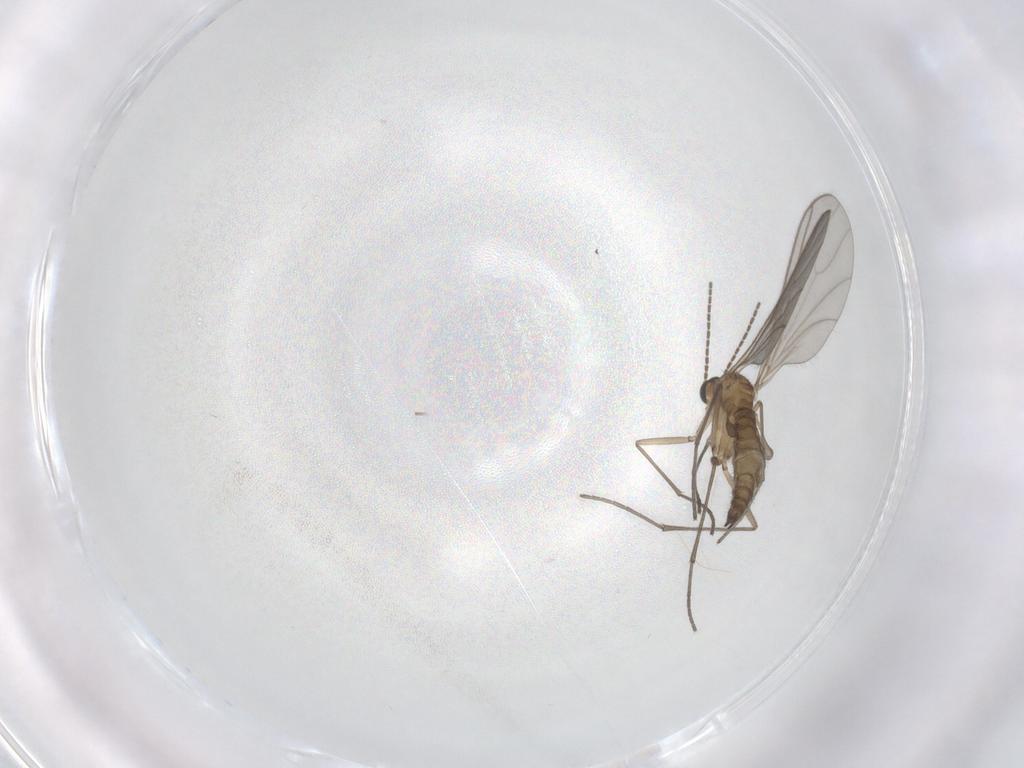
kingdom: Animalia
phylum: Arthropoda
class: Insecta
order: Diptera
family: Sciaridae
